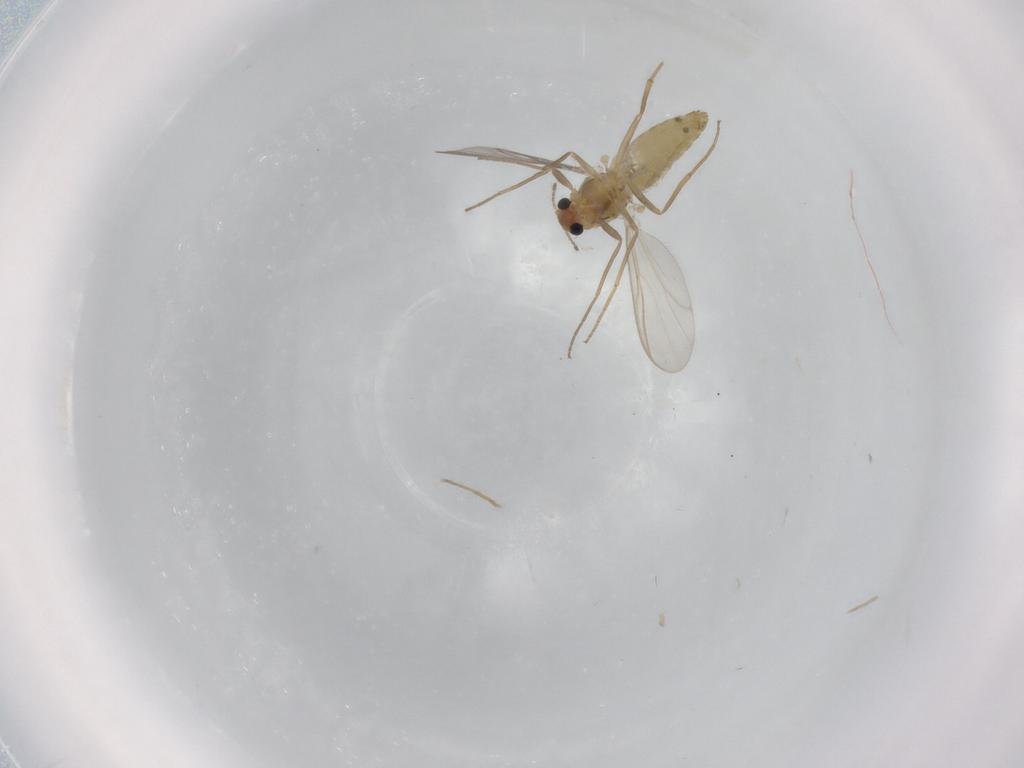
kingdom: Animalia
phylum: Arthropoda
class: Insecta
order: Diptera
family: Chironomidae
